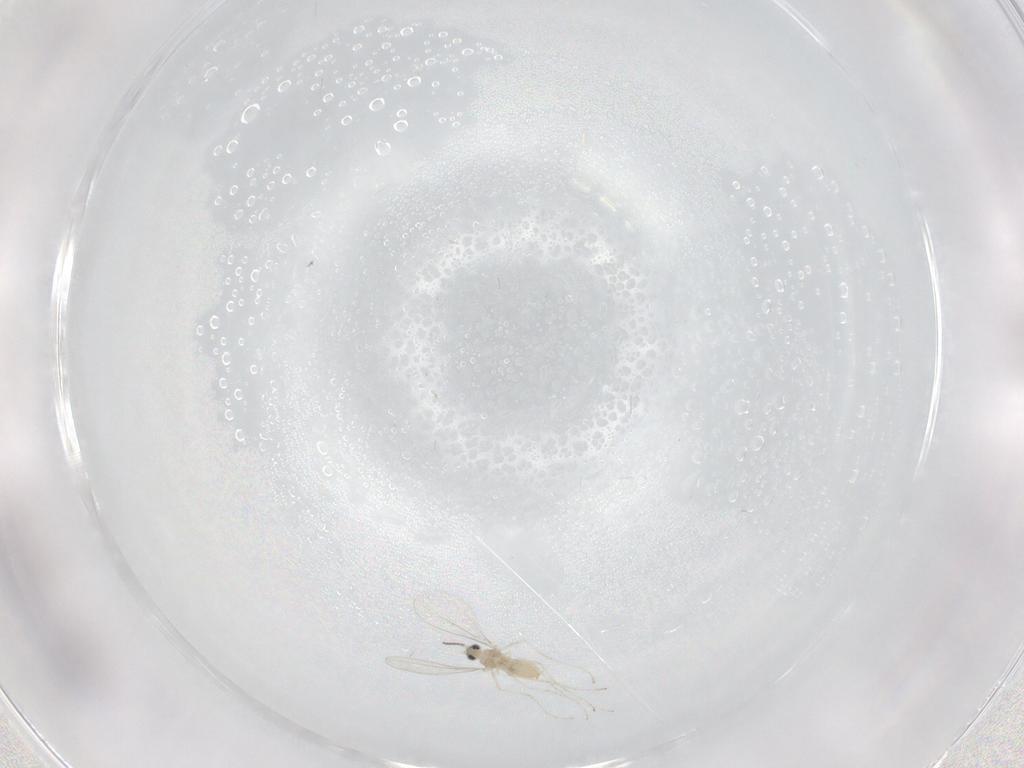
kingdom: Animalia
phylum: Arthropoda
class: Insecta
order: Diptera
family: Cecidomyiidae
